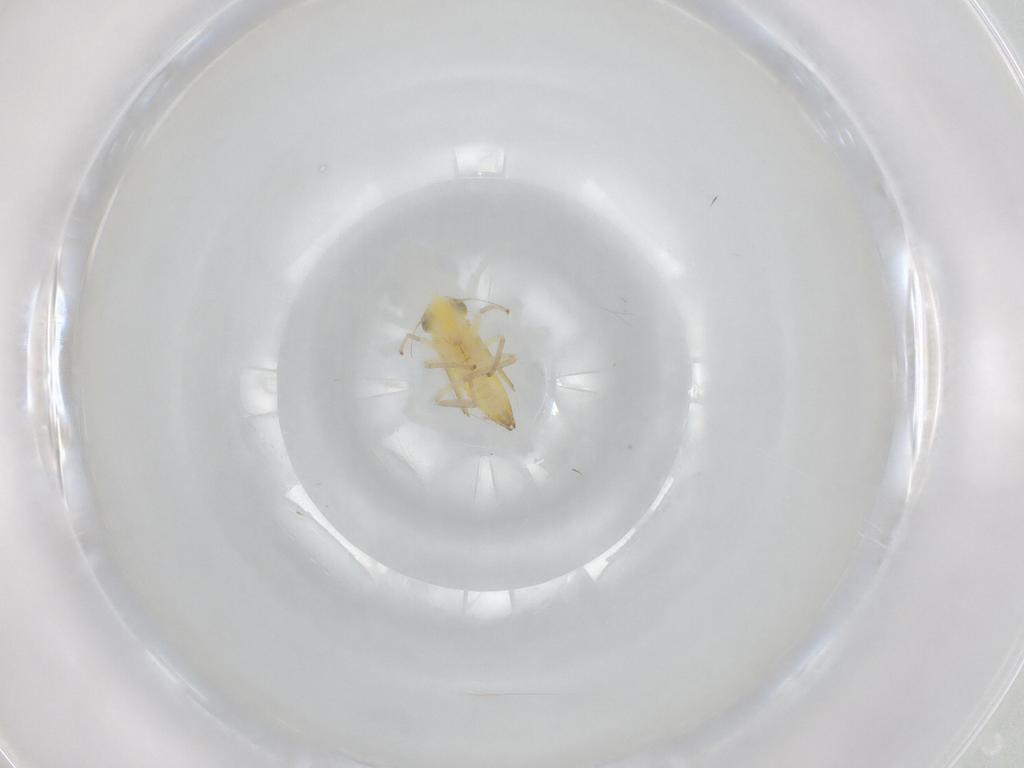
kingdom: Animalia
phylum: Arthropoda
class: Insecta
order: Hemiptera
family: Cicadellidae
